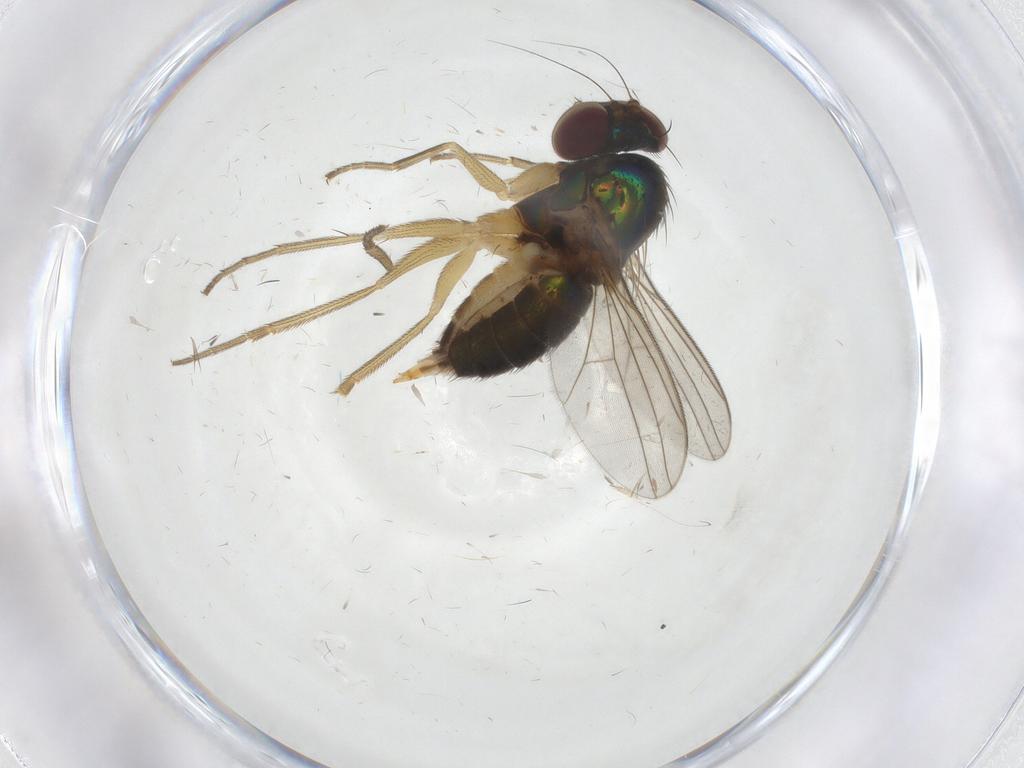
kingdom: Animalia
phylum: Arthropoda
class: Insecta
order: Diptera
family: Dolichopodidae
